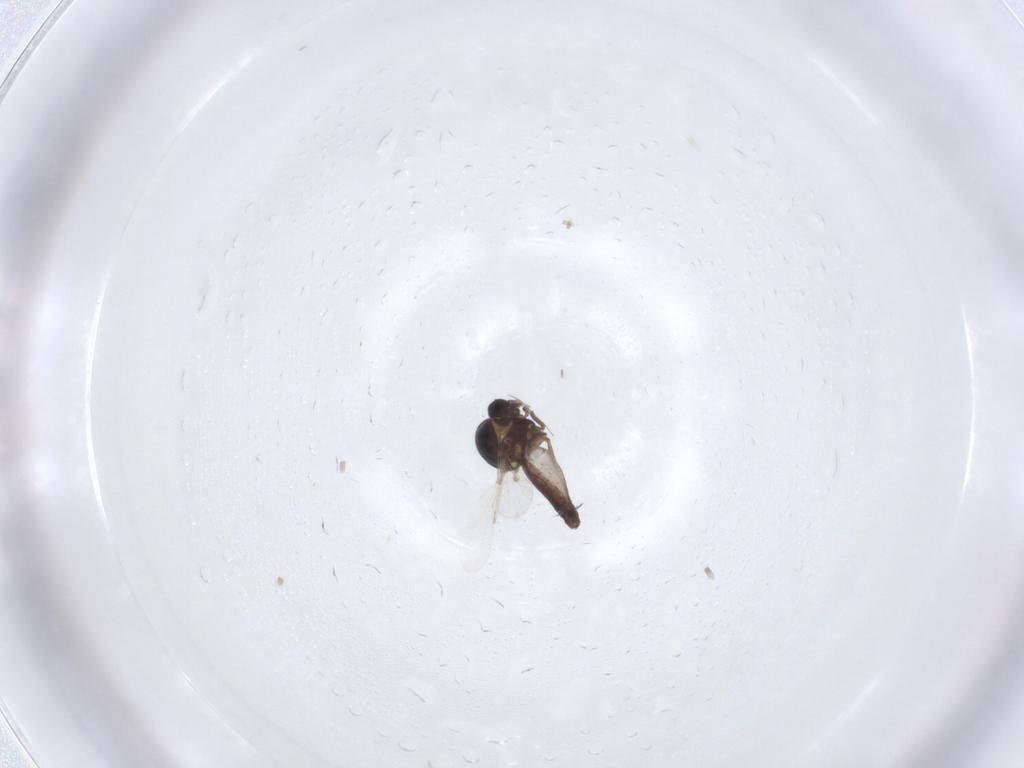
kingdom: Animalia
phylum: Arthropoda
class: Insecta
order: Diptera
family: Ceratopogonidae
